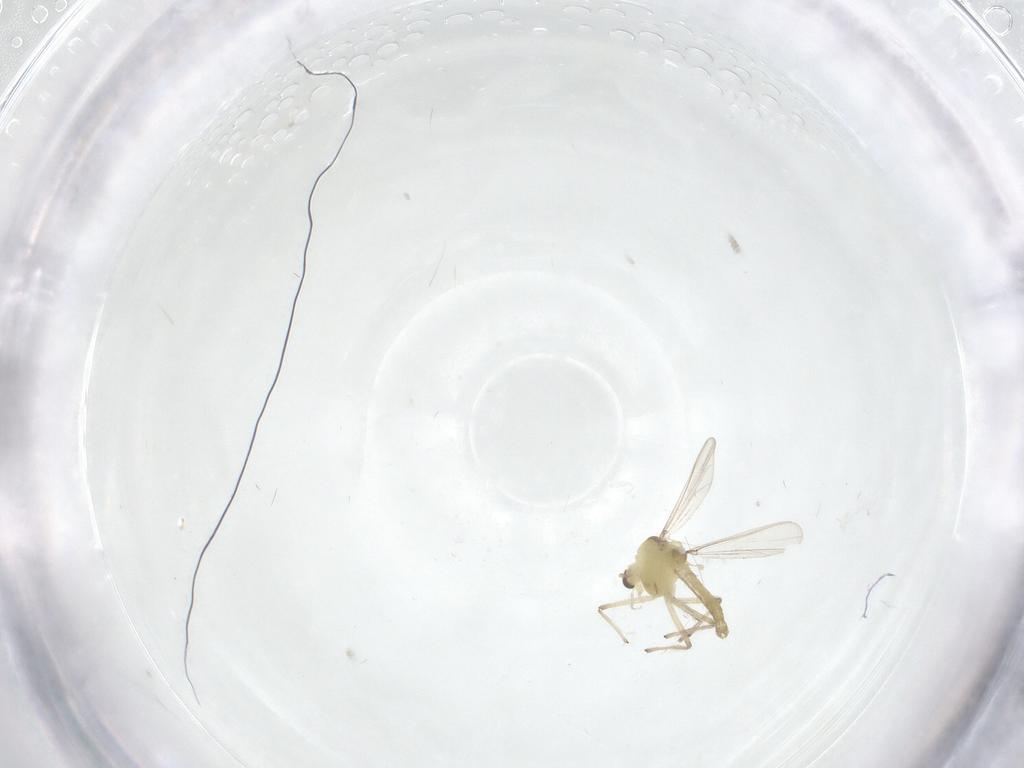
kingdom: Animalia
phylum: Arthropoda
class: Insecta
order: Diptera
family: Chironomidae
